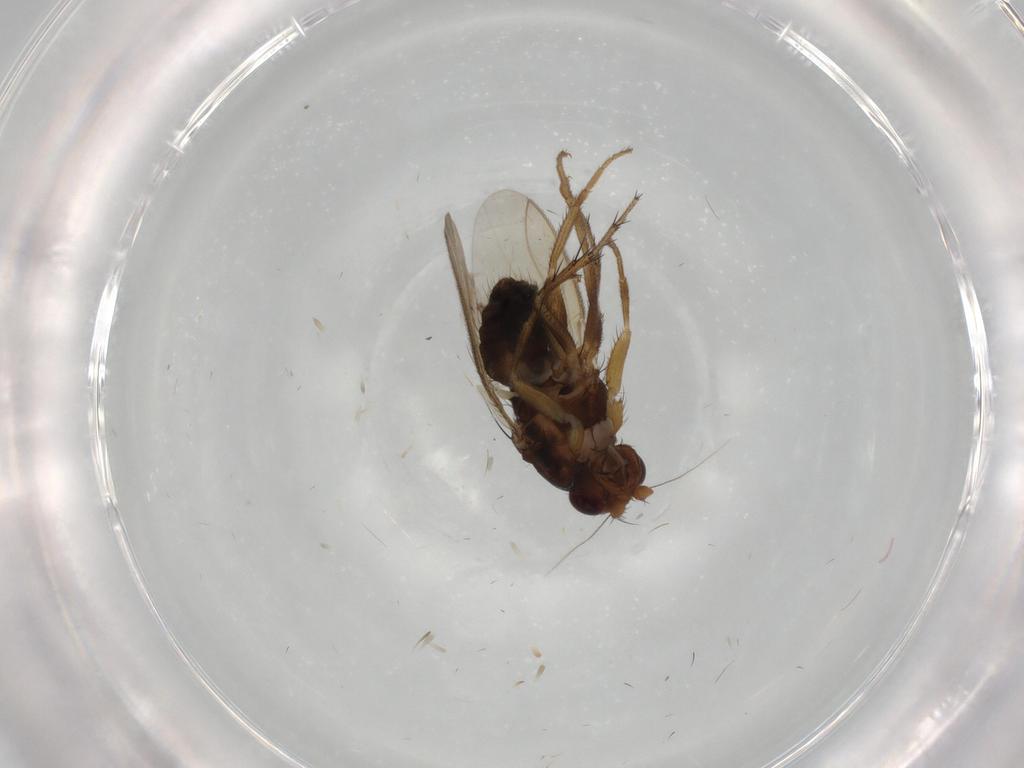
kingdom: Animalia
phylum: Arthropoda
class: Insecta
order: Diptera
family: Sphaeroceridae
